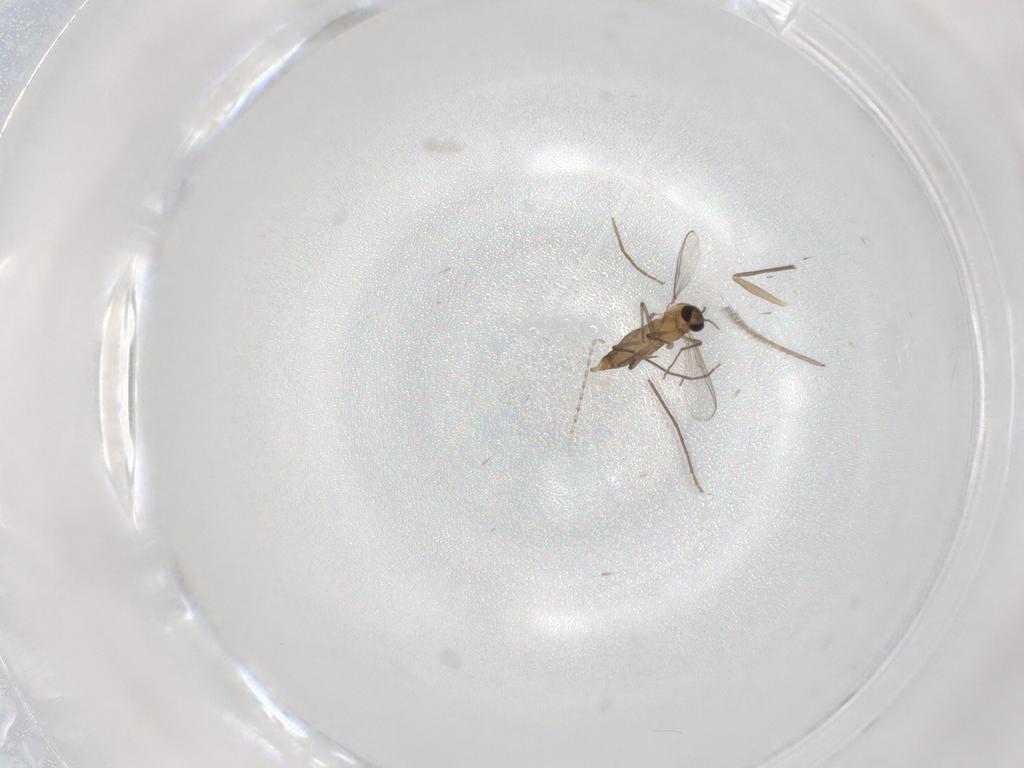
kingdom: Animalia
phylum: Arthropoda
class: Insecta
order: Diptera
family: Chironomidae
